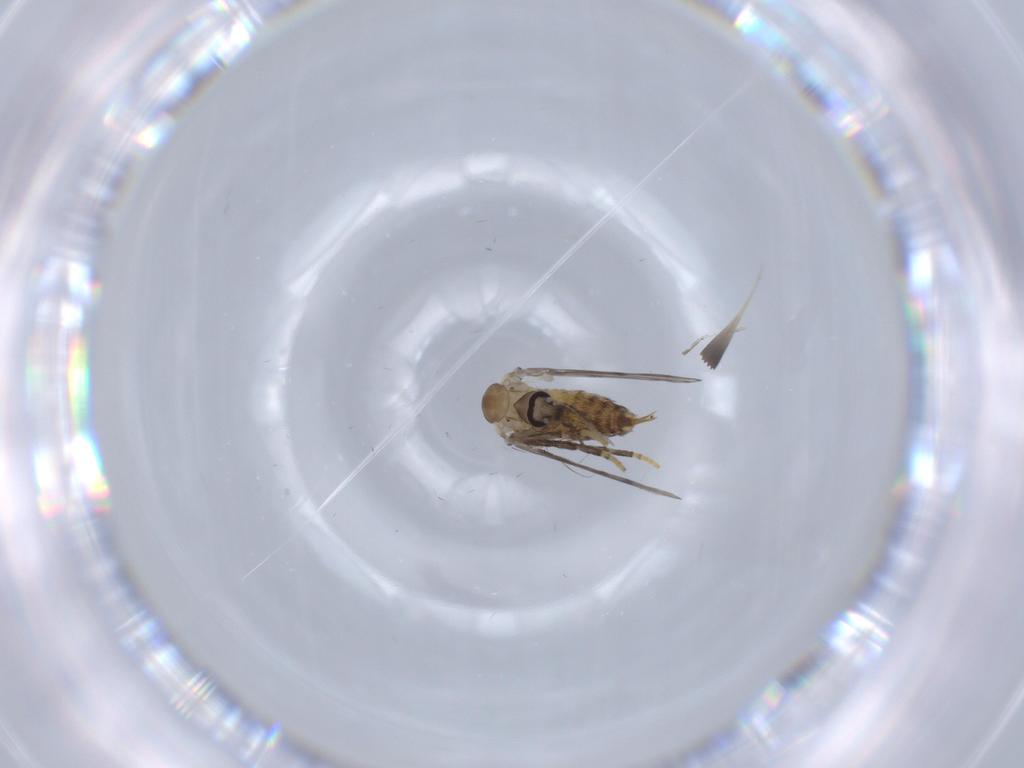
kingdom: Animalia
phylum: Arthropoda
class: Insecta
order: Diptera
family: Psychodidae
